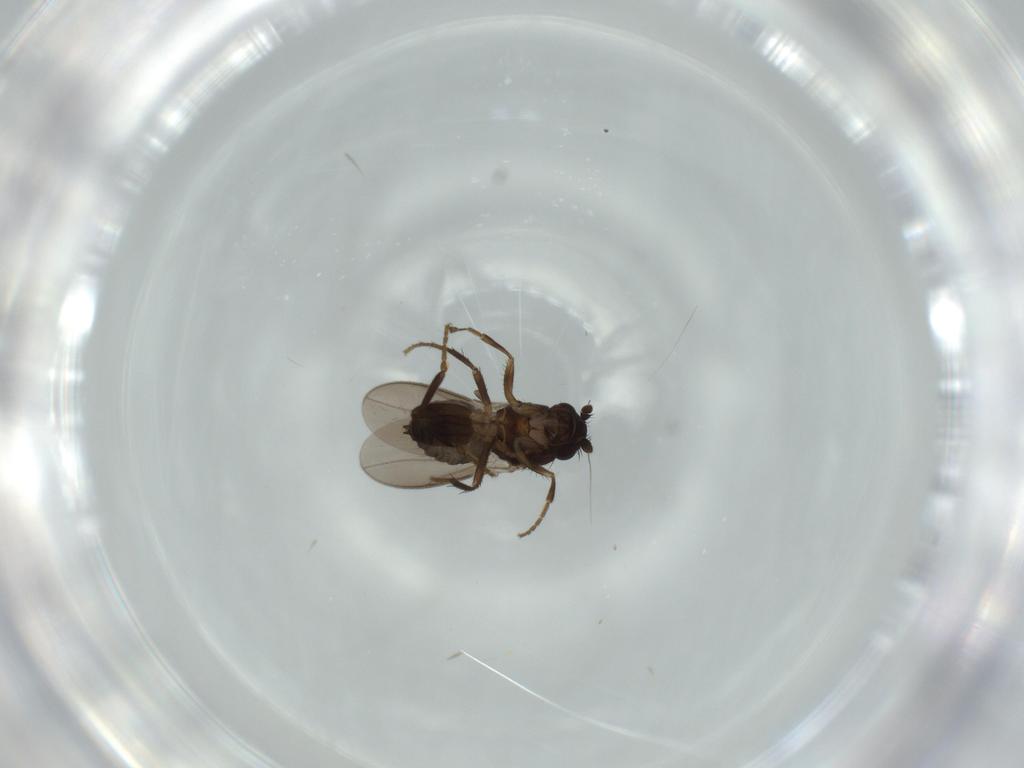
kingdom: Animalia
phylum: Arthropoda
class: Insecta
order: Diptera
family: Sphaeroceridae
